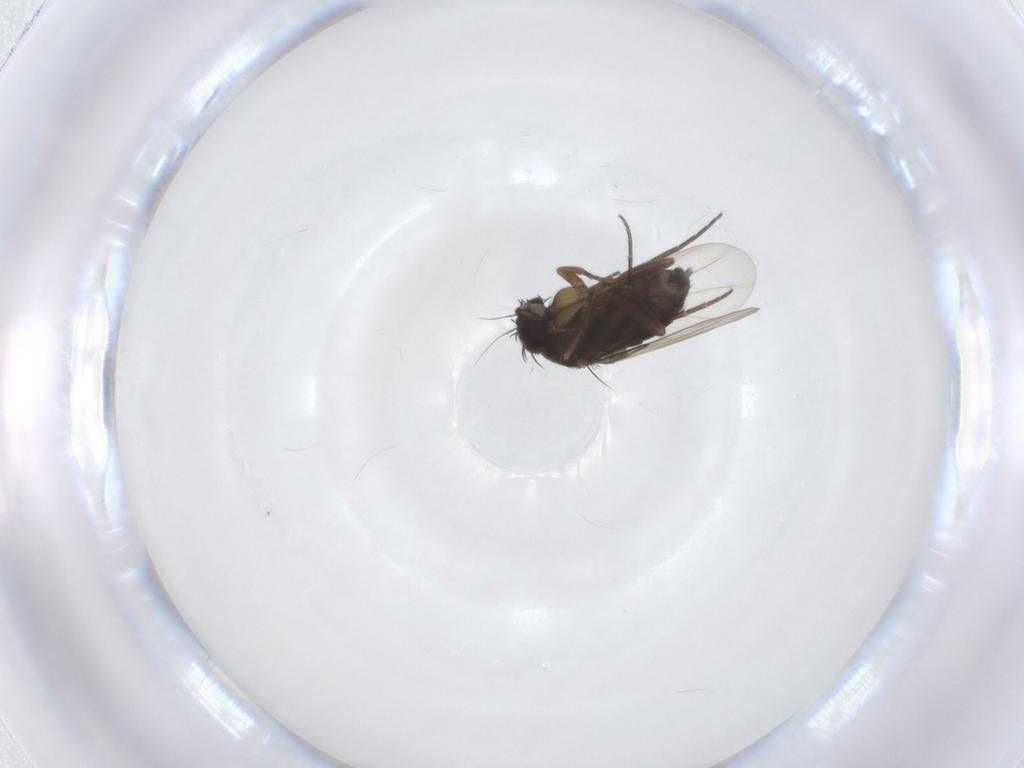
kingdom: Animalia
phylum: Arthropoda
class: Insecta
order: Diptera
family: Phoridae
